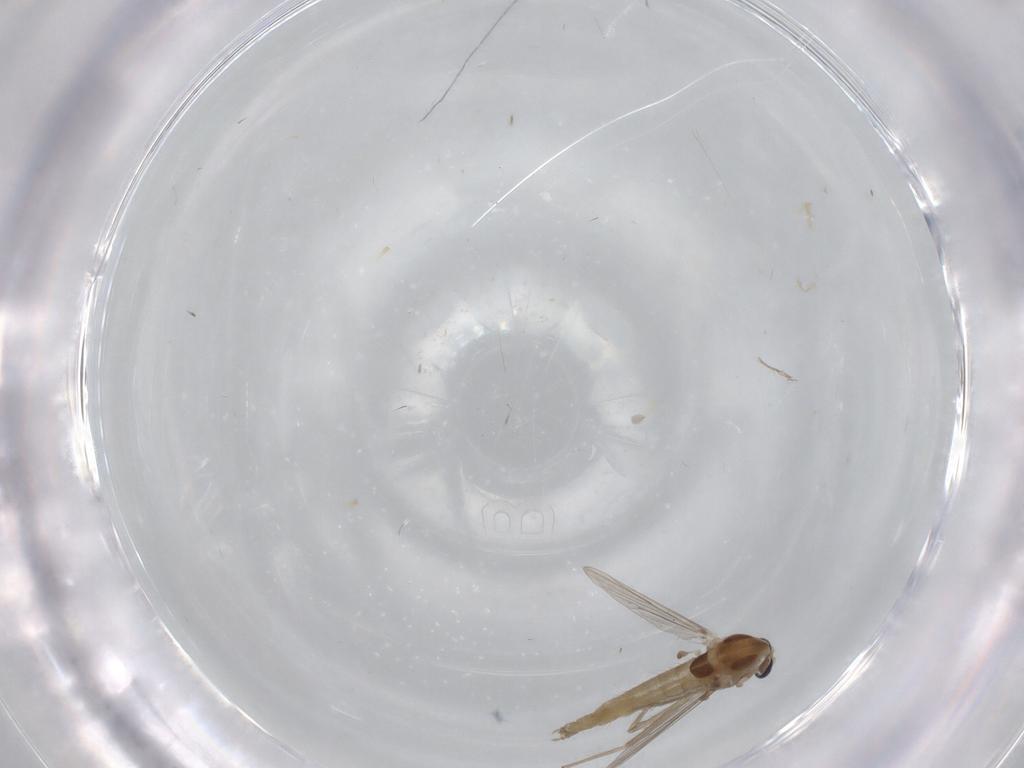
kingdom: Animalia
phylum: Arthropoda
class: Insecta
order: Diptera
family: Chironomidae
